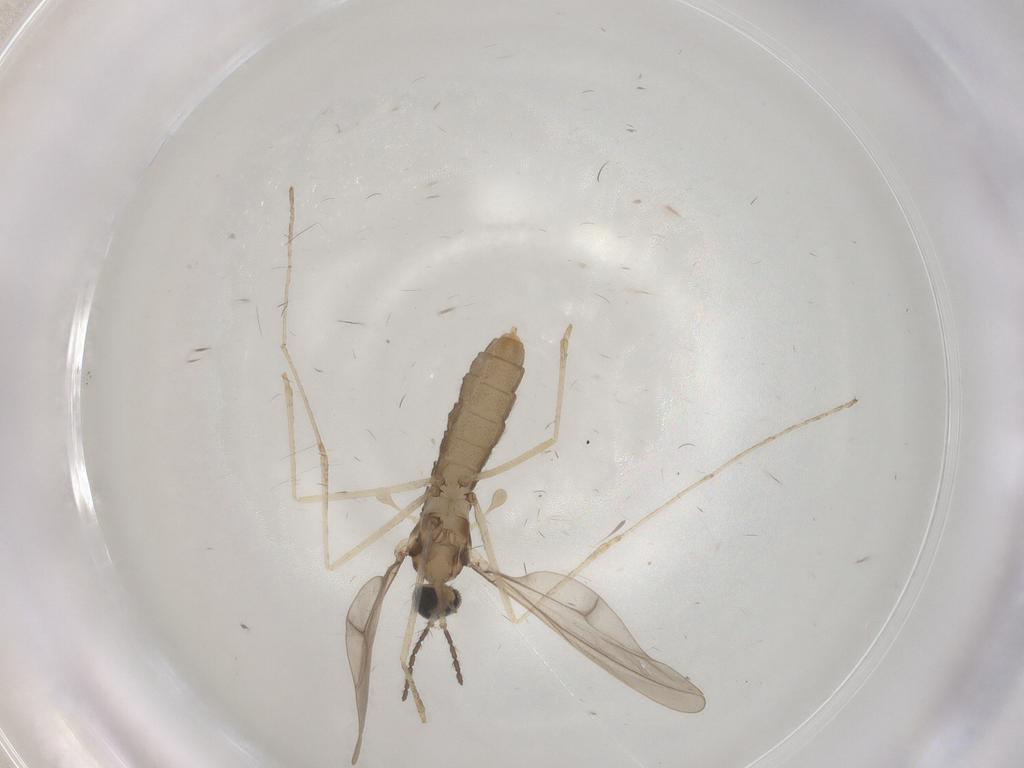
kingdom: Animalia
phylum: Arthropoda
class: Insecta
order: Diptera
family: Cecidomyiidae
